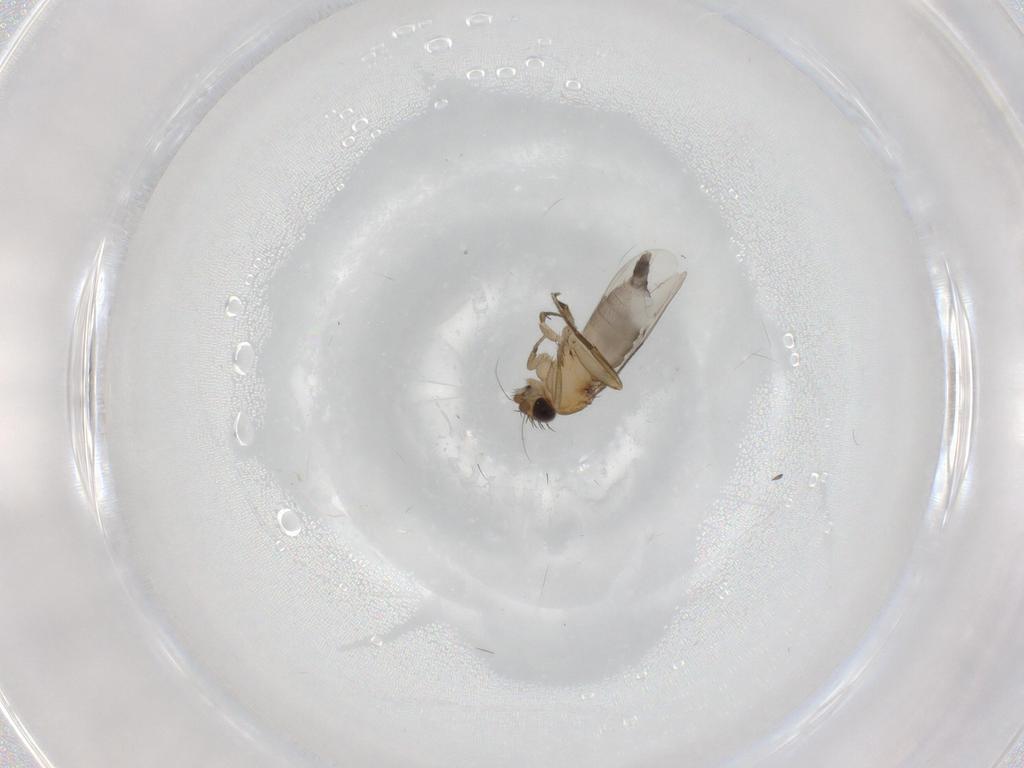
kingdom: Animalia
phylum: Arthropoda
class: Insecta
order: Diptera
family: Phoridae
